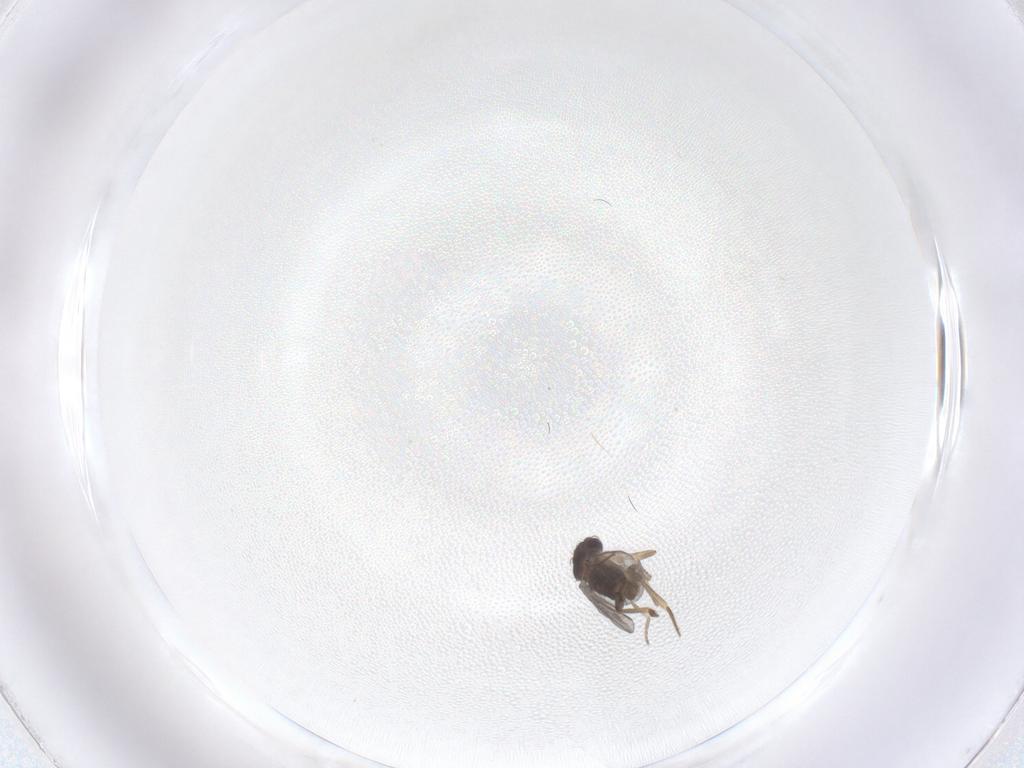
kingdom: Animalia
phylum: Arthropoda
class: Insecta
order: Diptera
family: Phoridae
